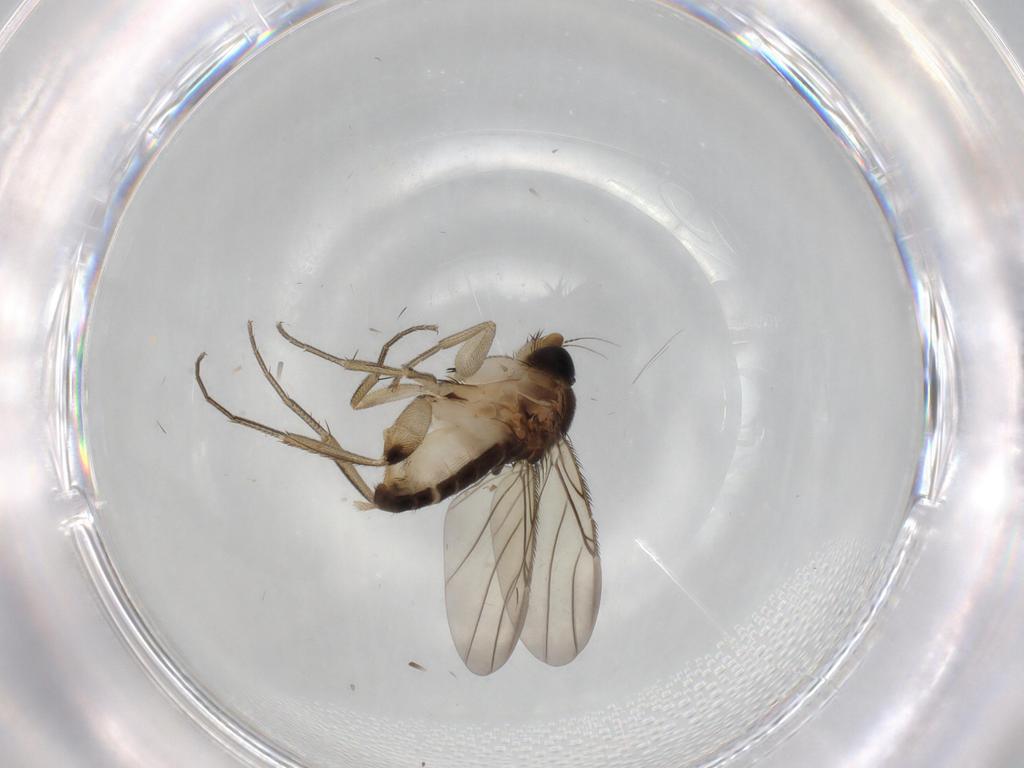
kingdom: Animalia
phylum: Arthropoda
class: Insecta
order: Diptera
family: Phoridae
